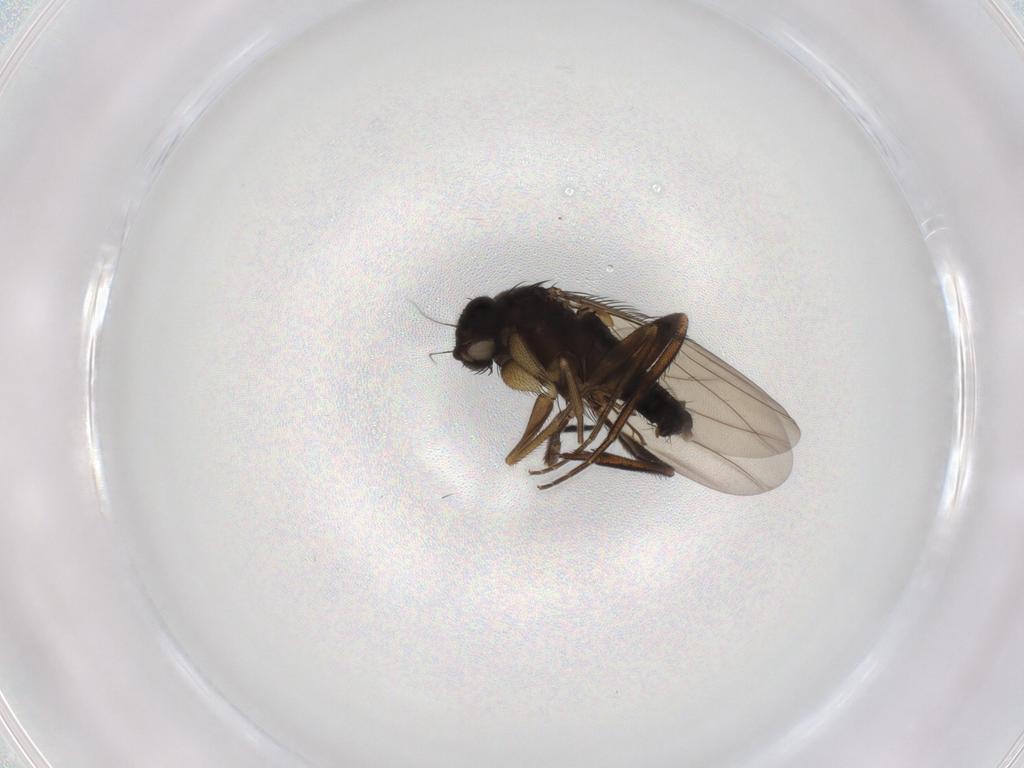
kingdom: Animalia
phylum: Arthropoda
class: Insecta
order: Diptera
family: Phoridae
